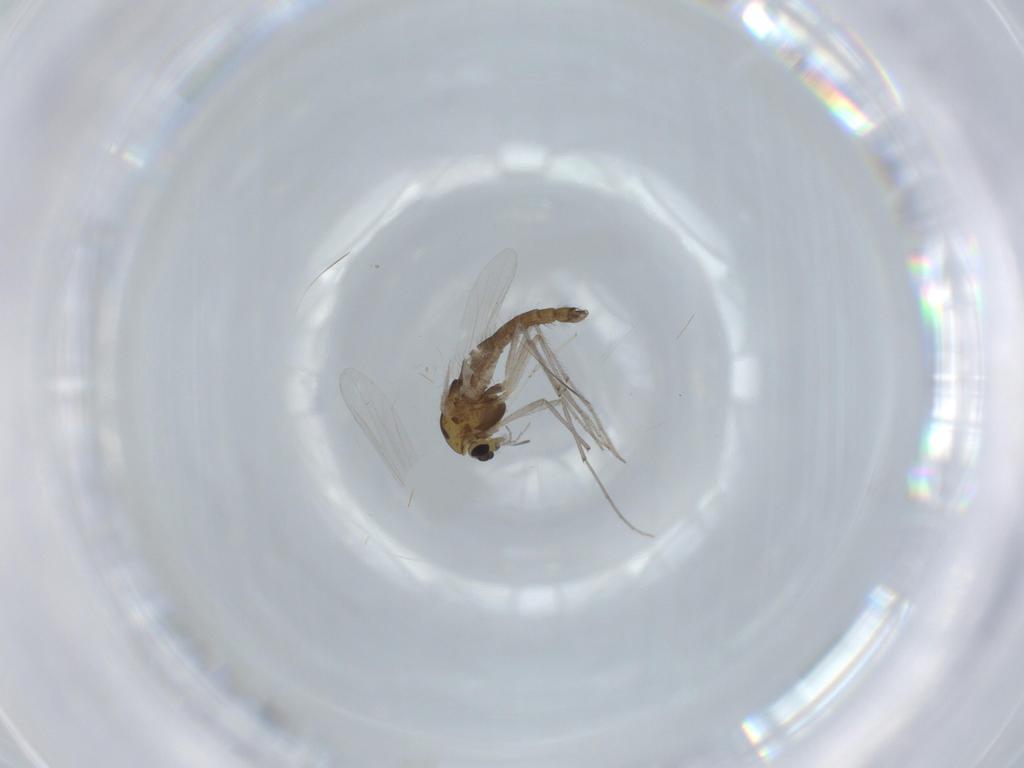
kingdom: Animalia
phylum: Arthropoda
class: Insecta
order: Diptera
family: Chironomidae
